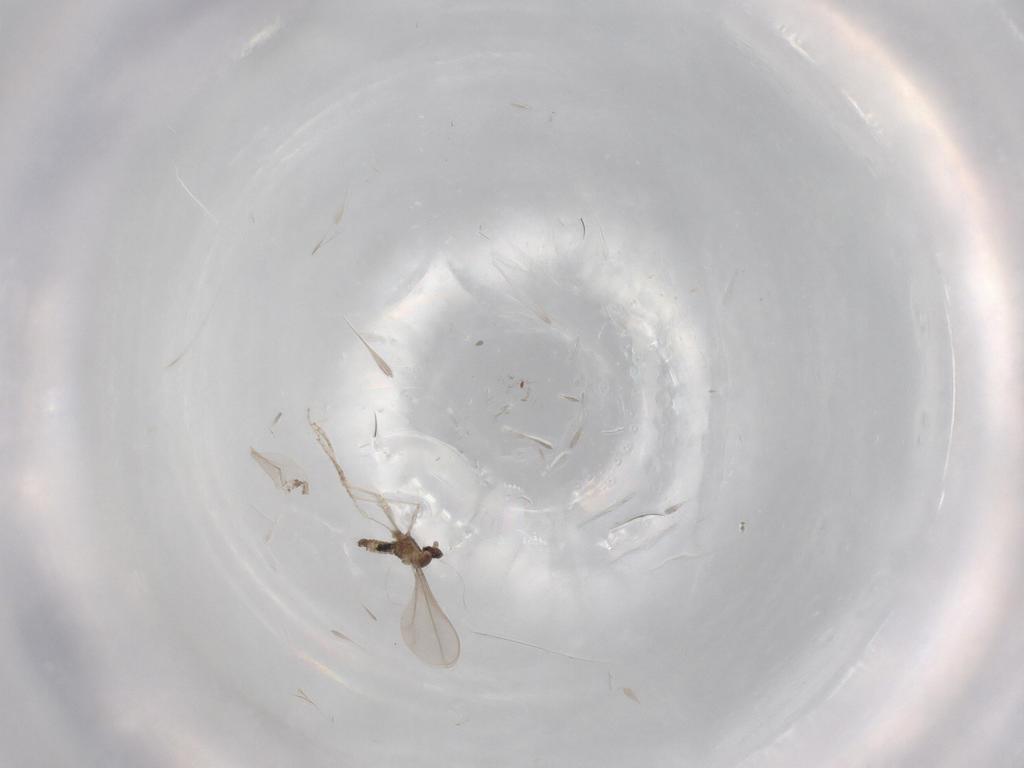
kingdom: Animalia
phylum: Arthropoda
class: Insecta
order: Diptera
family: Cecidomyiidae
